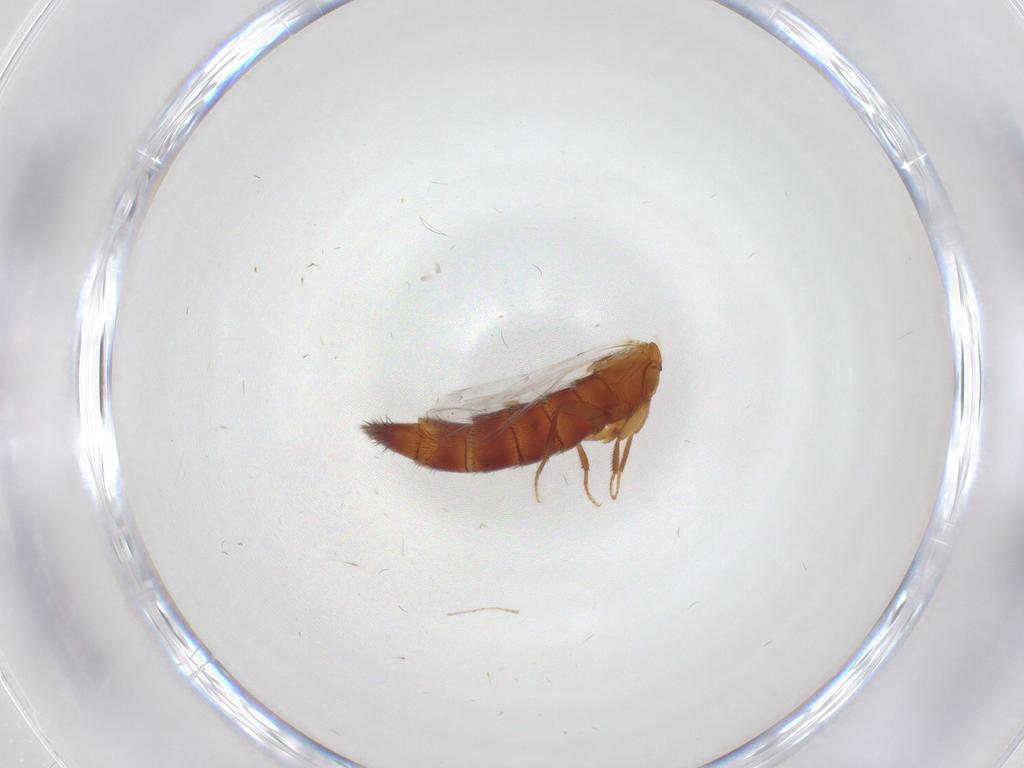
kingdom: Animalia
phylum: Arthropoda
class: Insecta
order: Coleoptera
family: Staphylinidae
